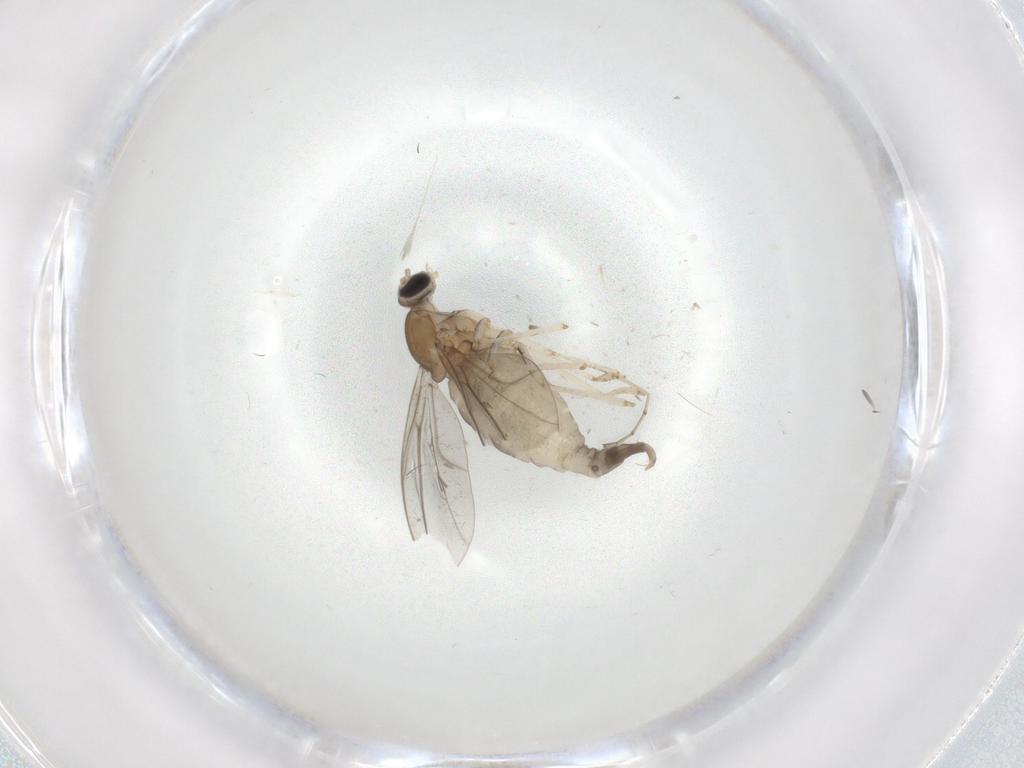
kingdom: Animalia
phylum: Arthropoda
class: Insecta
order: Diptera
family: Cecidomyiidae
